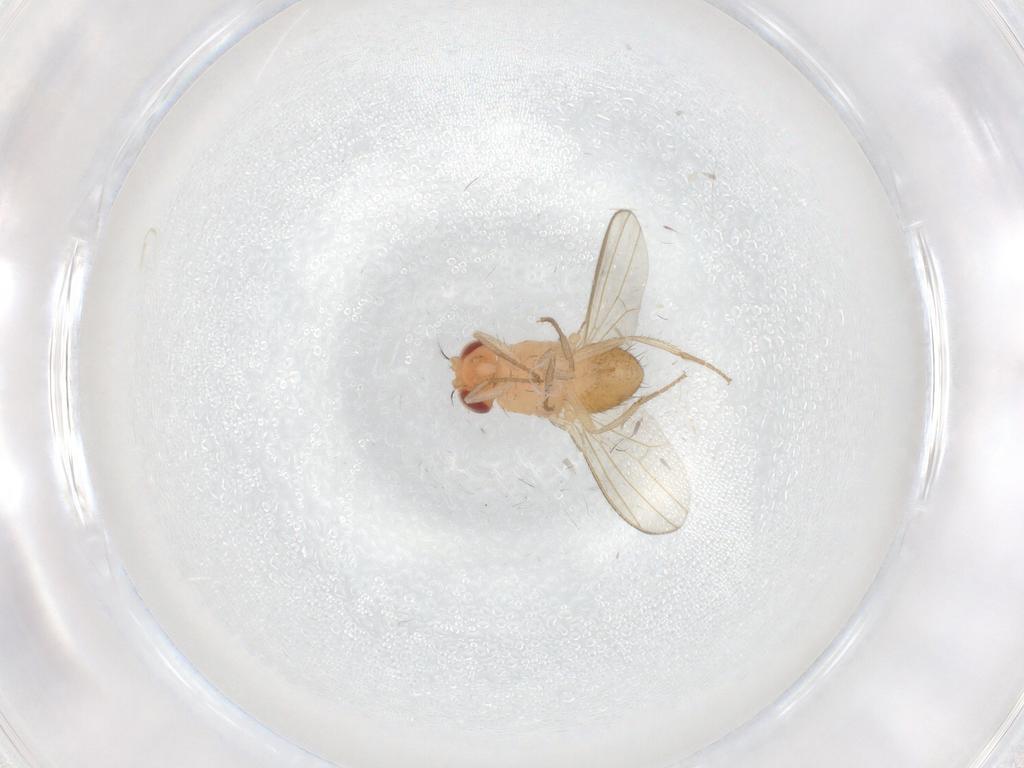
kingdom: Animalia
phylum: Arthropoda
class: Insecta
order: Diptera
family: Drosophilidae
